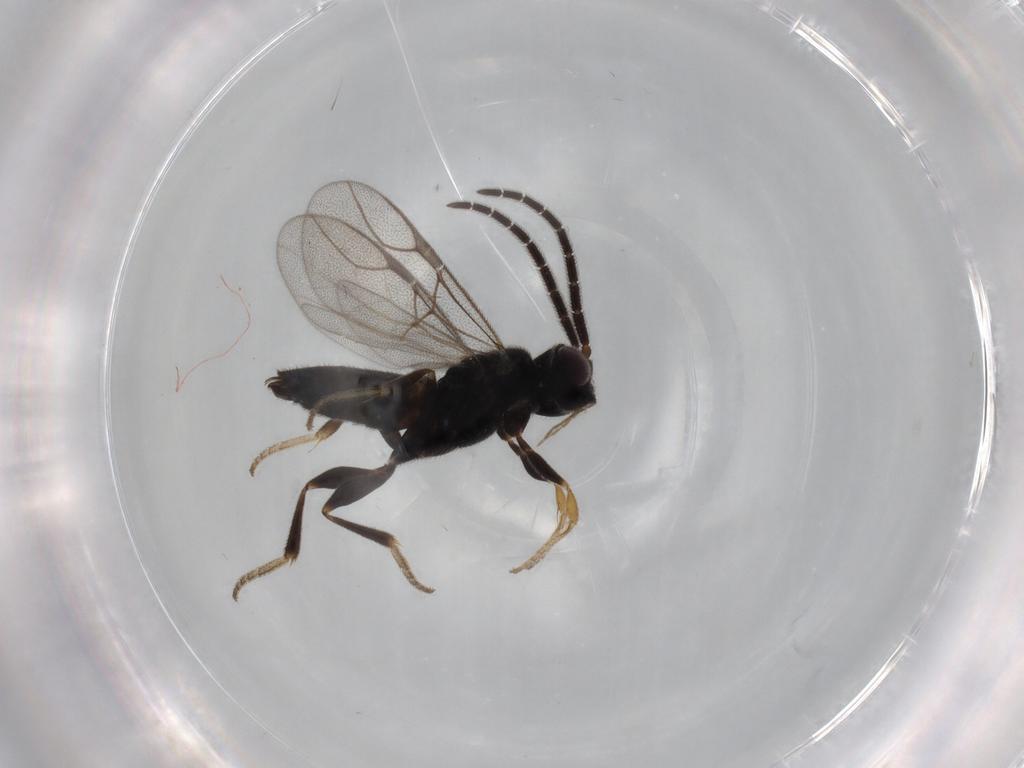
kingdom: Animalia
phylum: Arthropoda
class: Insecta
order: Hymenoptera
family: Dryinidae
